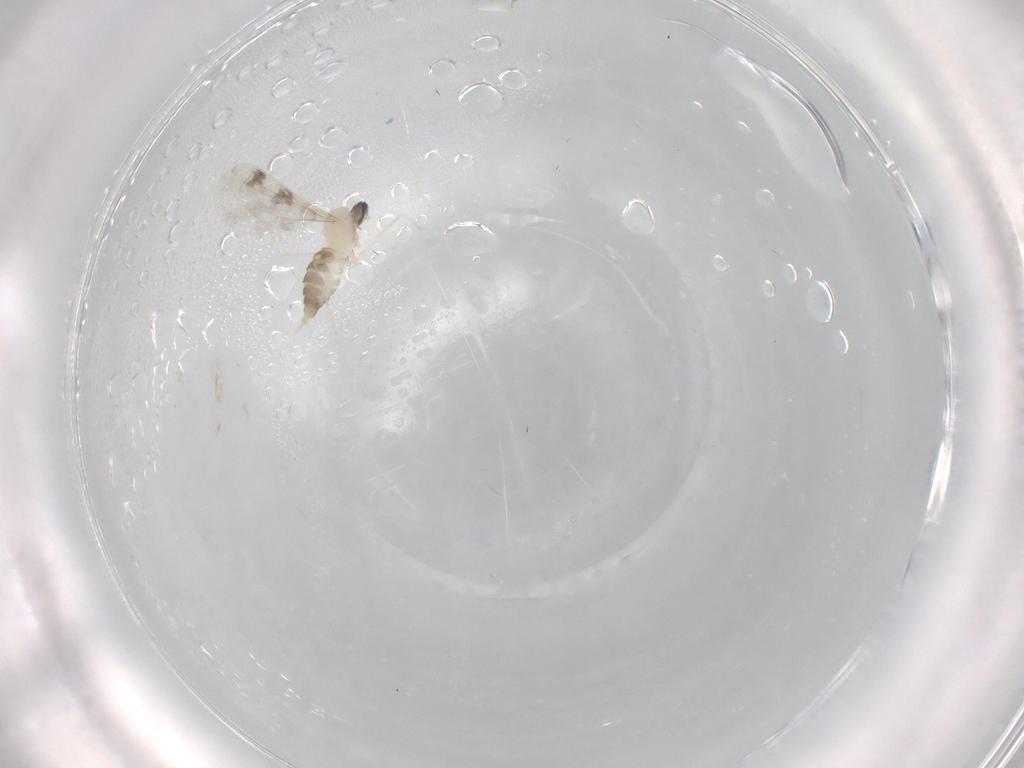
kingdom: Animalia
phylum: Arthropoda
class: Insecta
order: Diptera
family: Cecidomyiidae
